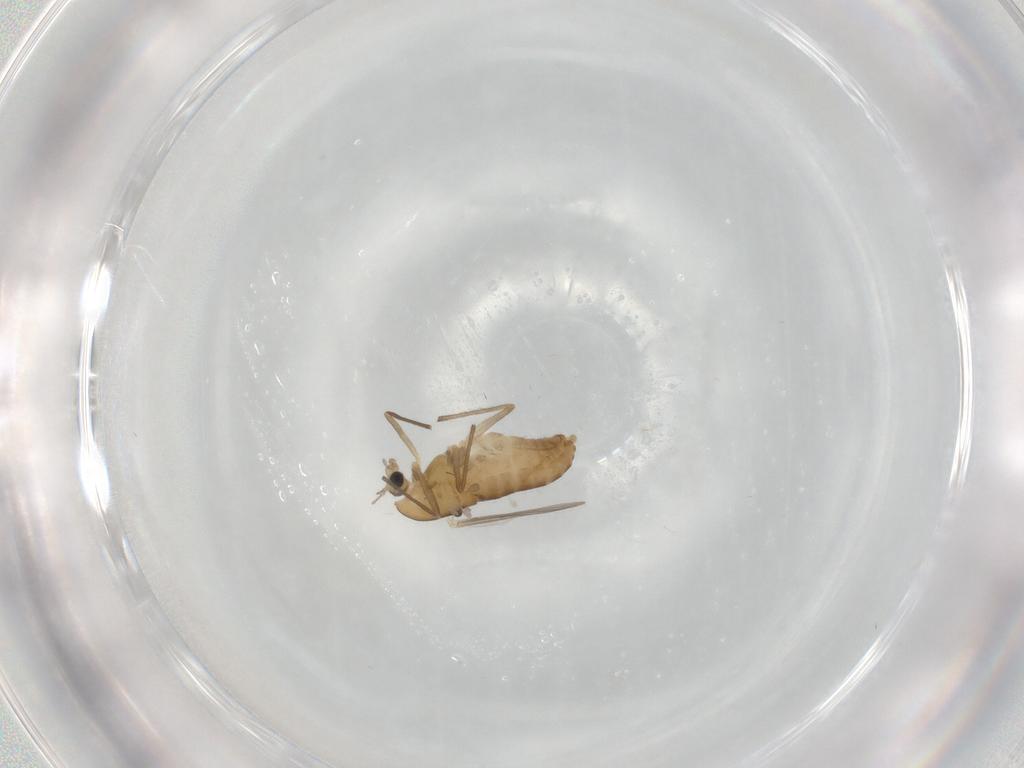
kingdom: Animalia
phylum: Arthropoda
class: Insecta
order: Diptera
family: Chironomidae
